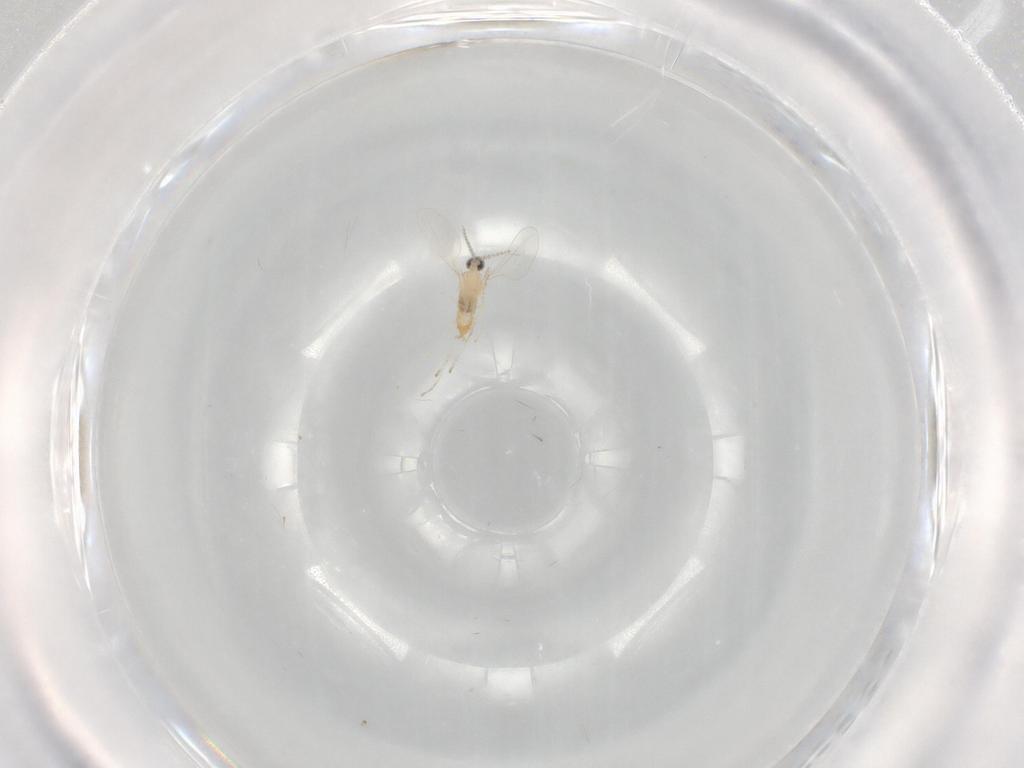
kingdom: Animalia
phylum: Arthropoda
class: Insecta
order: Diptera
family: Cecidomyiidae
